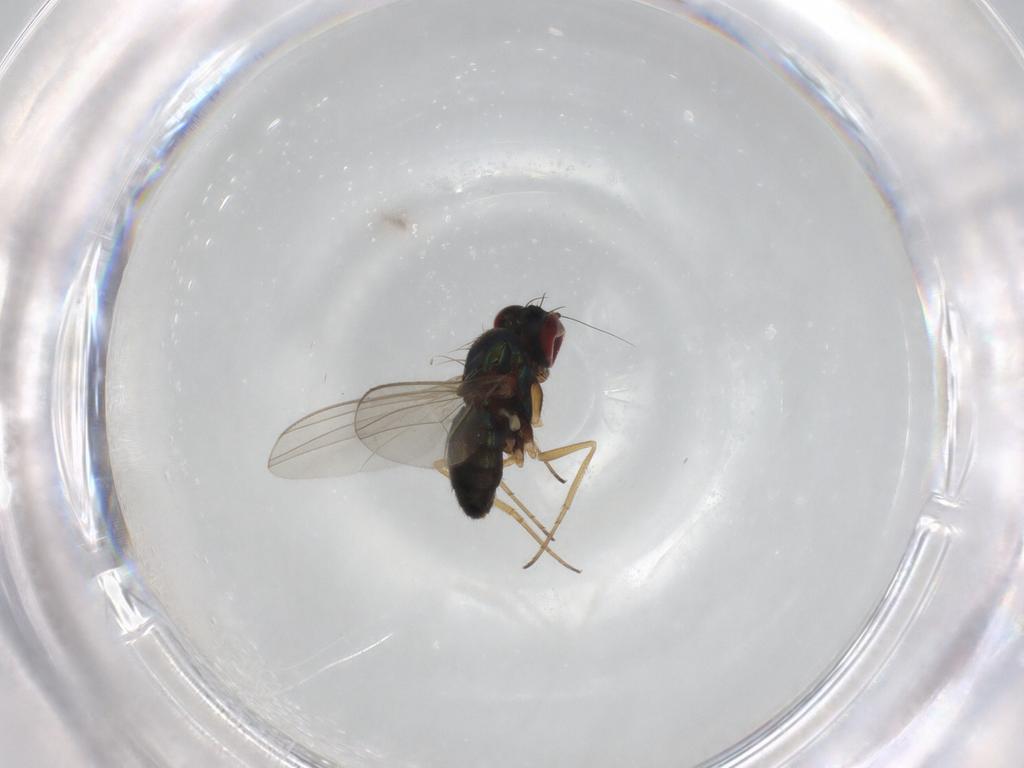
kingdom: Animalia
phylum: Arthropoda
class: Insecta
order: Diptera
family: Dolichopodidae
